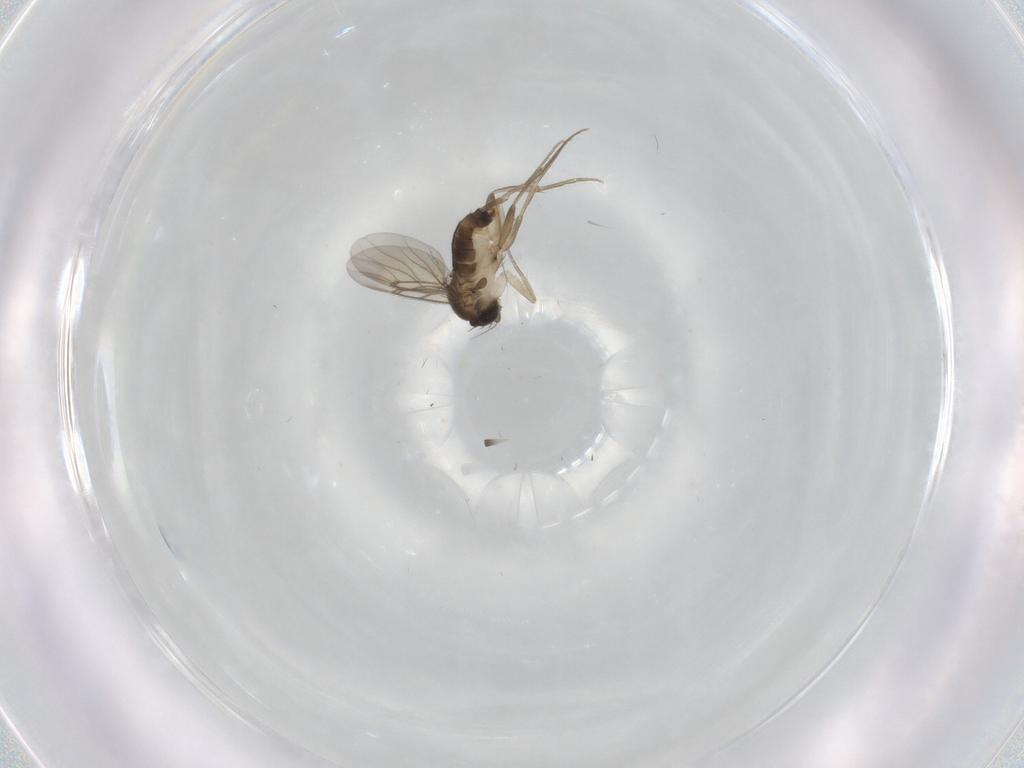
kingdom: Animalia
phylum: Arthropoda
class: Insecta
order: Diptera
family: Phoridae
